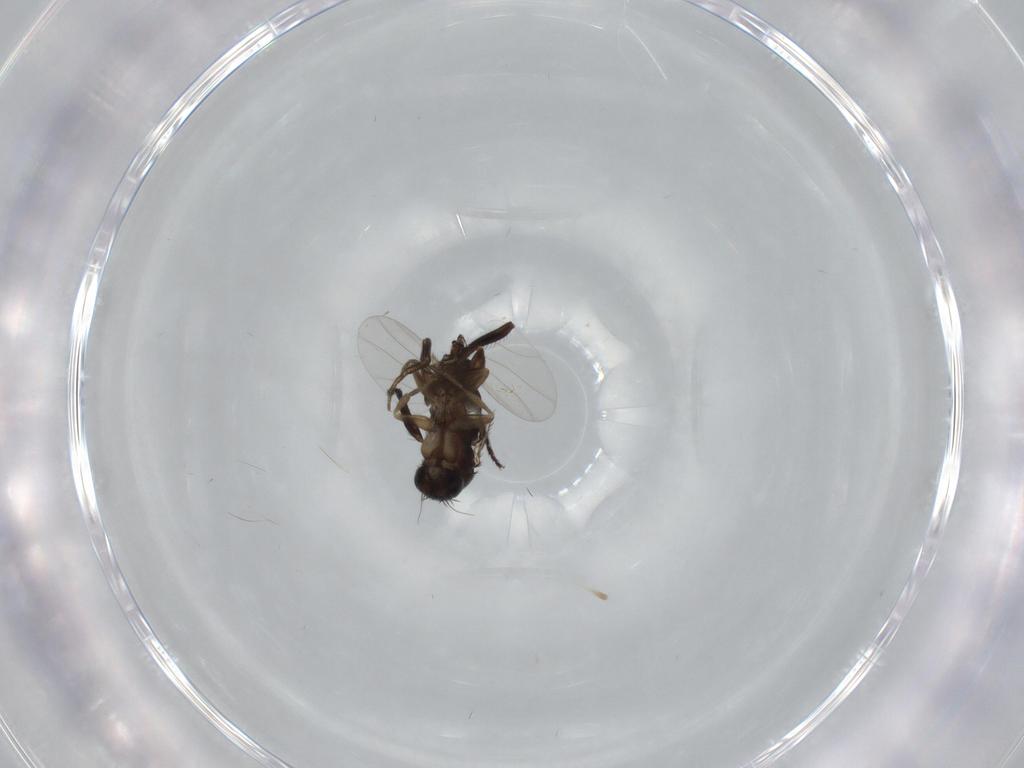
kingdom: Animalia
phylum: Arthropoda
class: Insecta
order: Diptera
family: Phoridae
